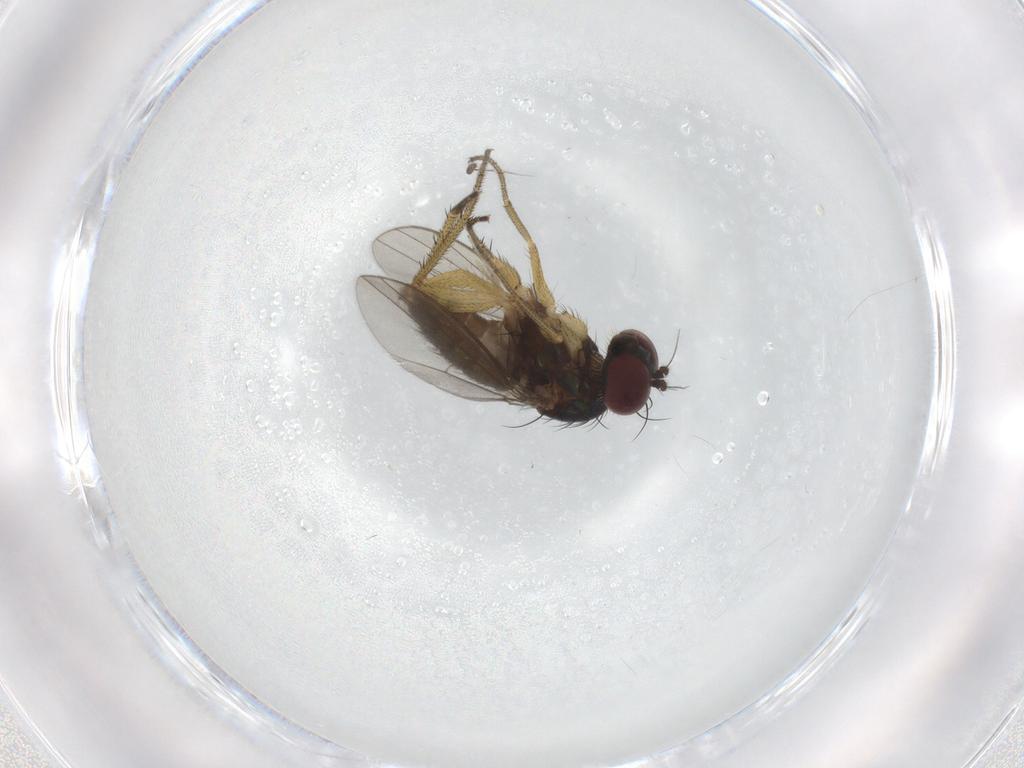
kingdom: Animalia
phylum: Arthropoda
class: Insecta
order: Diptera
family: Dolichopodidae
